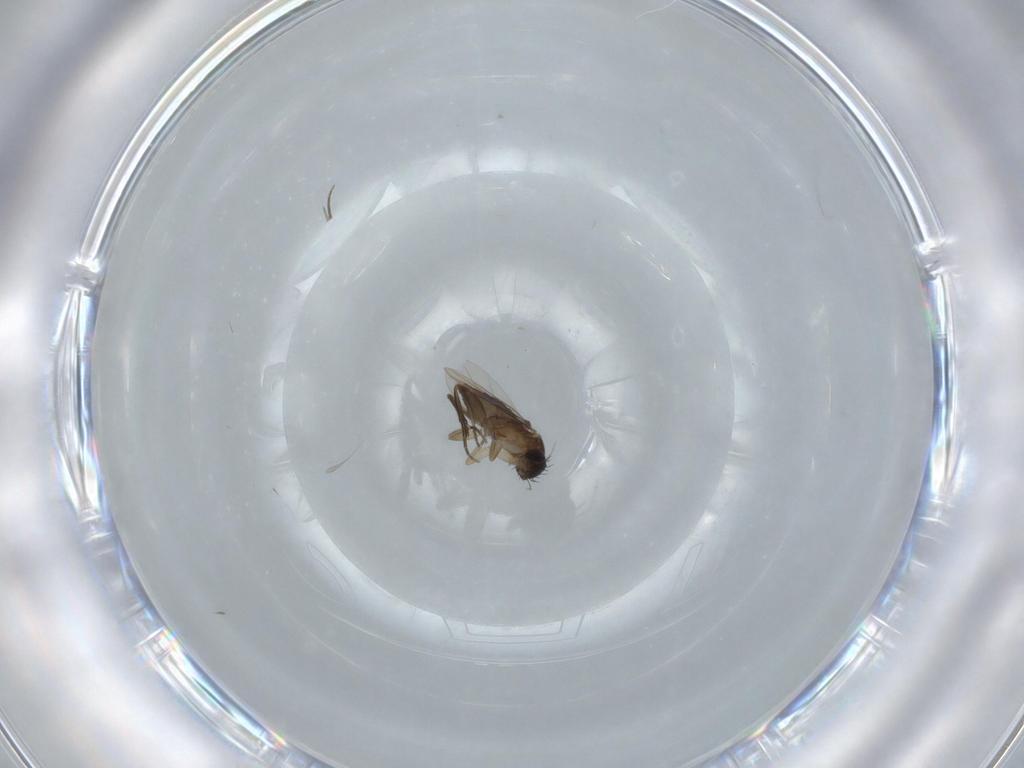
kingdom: Animalia
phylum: Arthropoda
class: Insecta
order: Diptera
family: Phoridae
